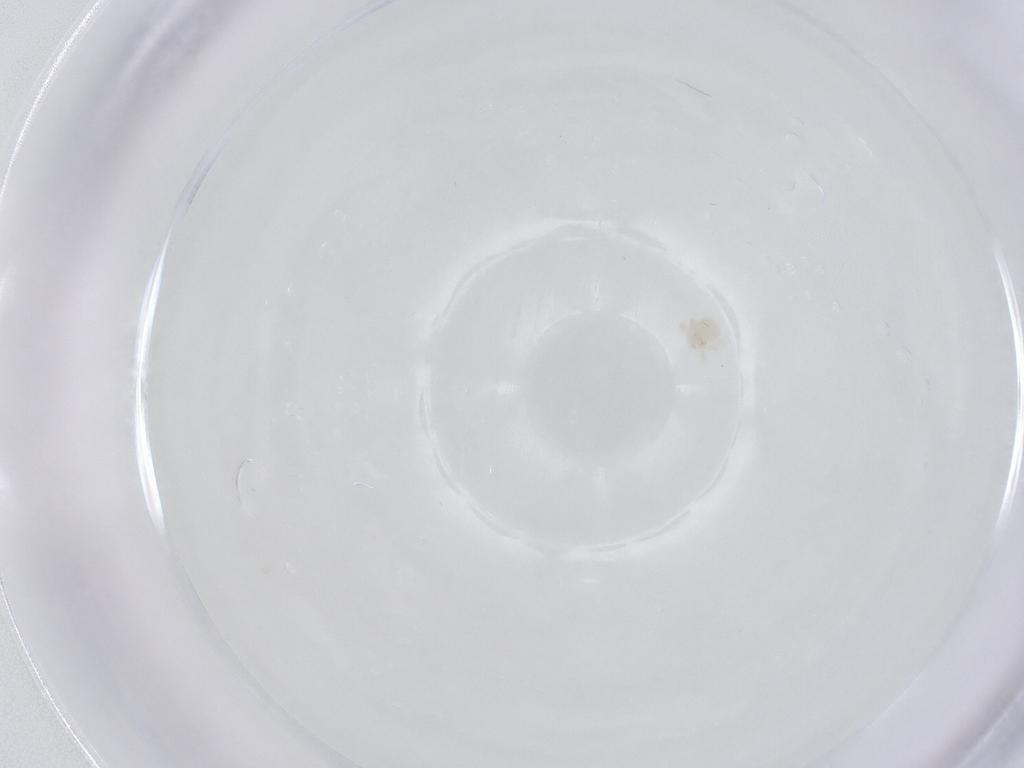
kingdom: Animalia
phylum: Arthropoda
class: Arachnida
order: Trombidiformes
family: Anystidae
